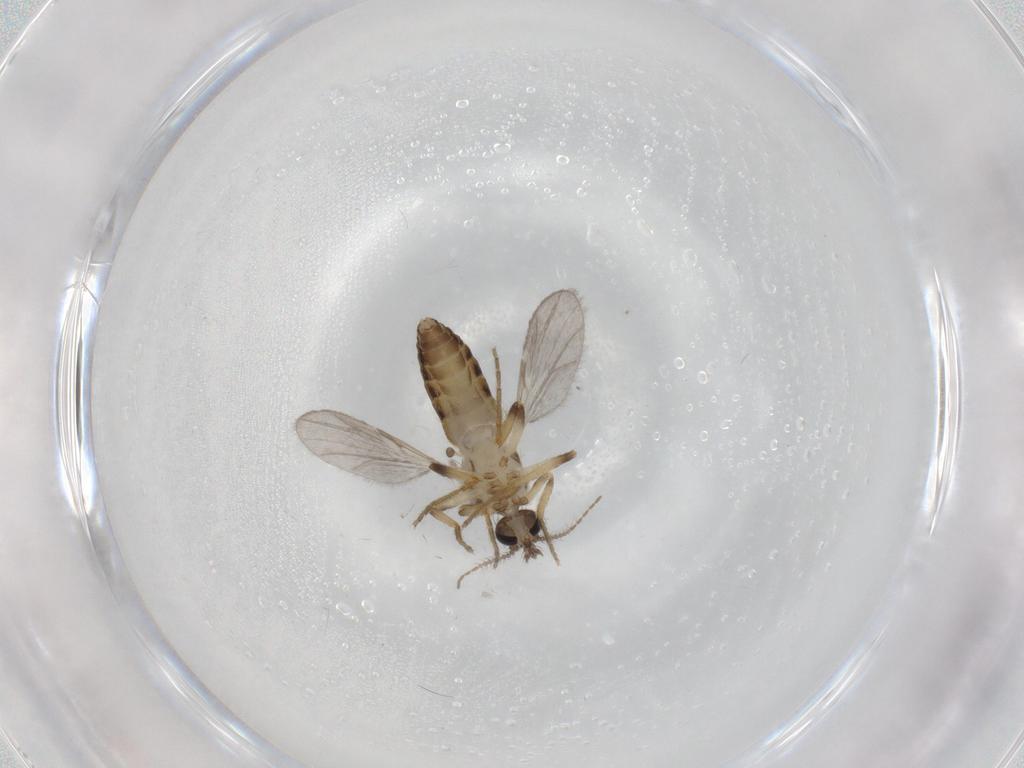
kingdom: Animalia
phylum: Arthropoda
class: Insecta
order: Diptera
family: Ceratopogonidae
